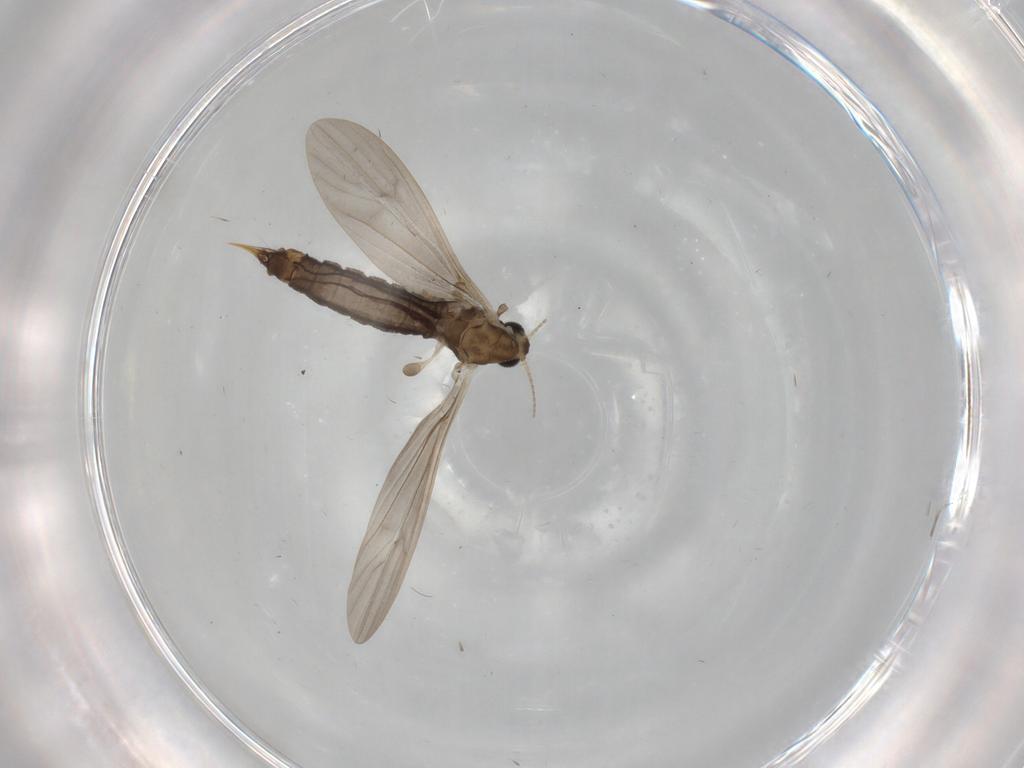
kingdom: Animalia
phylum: Arthropoda
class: Insecta
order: Diptera
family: Limoniidae
